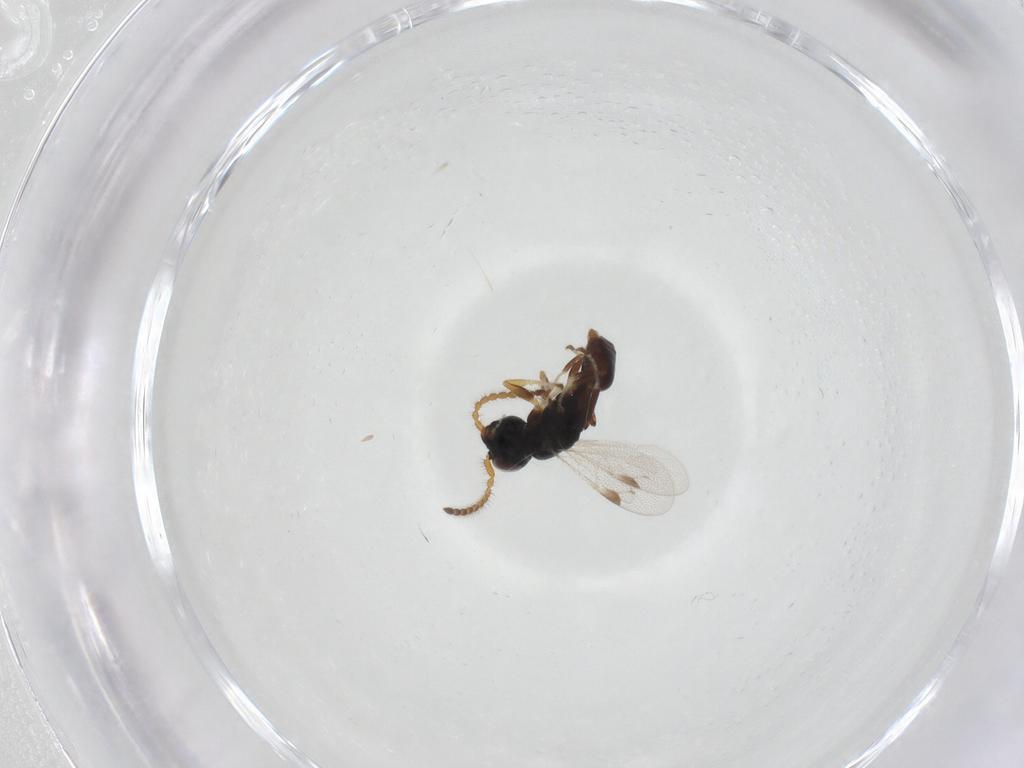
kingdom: Animalia
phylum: Arthropoda
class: Insecta
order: Hymenoptera
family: Dryinidae
